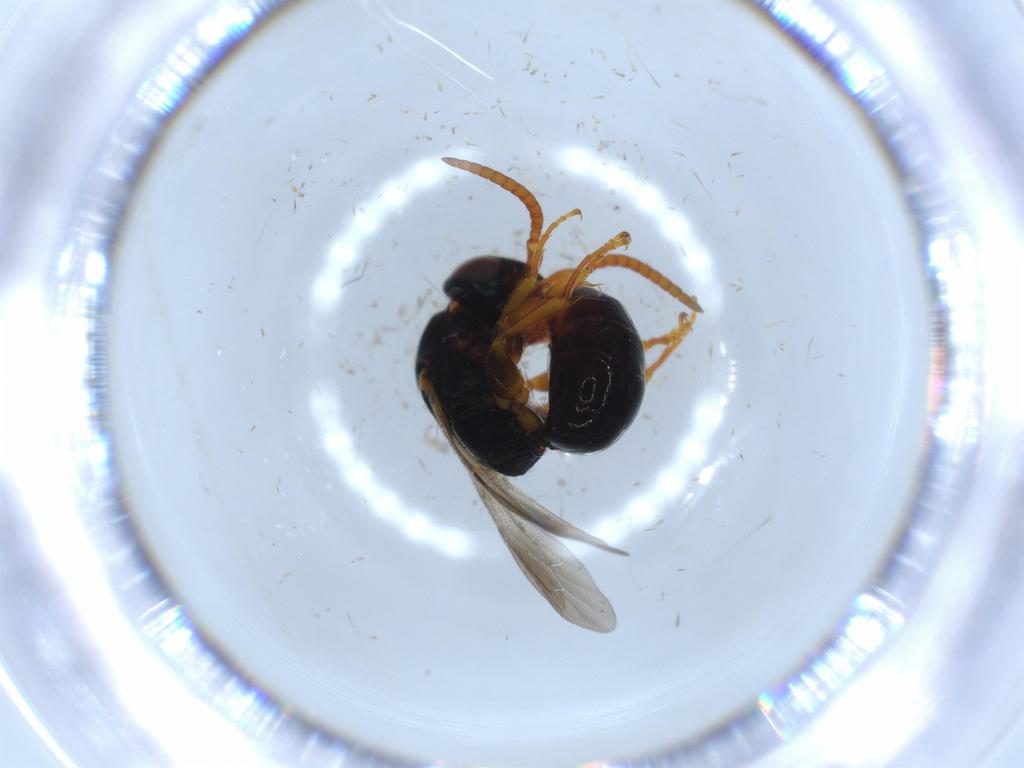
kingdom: Animalia
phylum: Arthropoda
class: Insecta
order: Hymenoptera
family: Bethylidae
